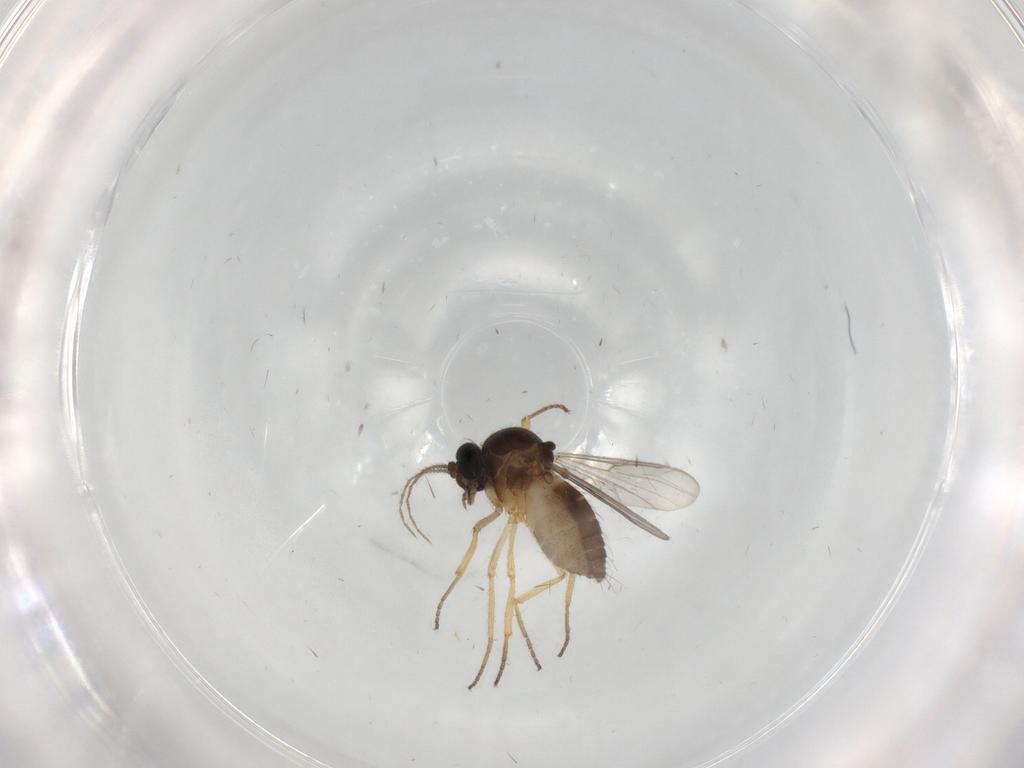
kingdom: Animalia
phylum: Arthropoda
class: Insecta
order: Diptera
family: Ceratopogonidae
